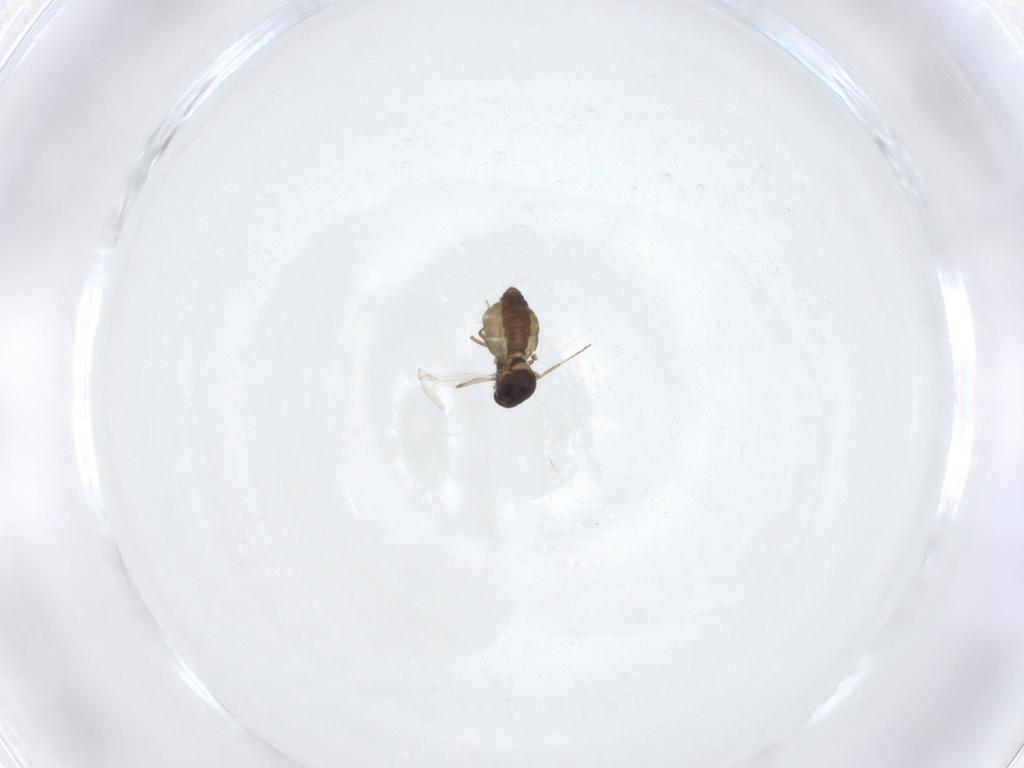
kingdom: Animalia
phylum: Arthropoda
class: Insecta
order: Diptera
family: Ceratopogonidae
